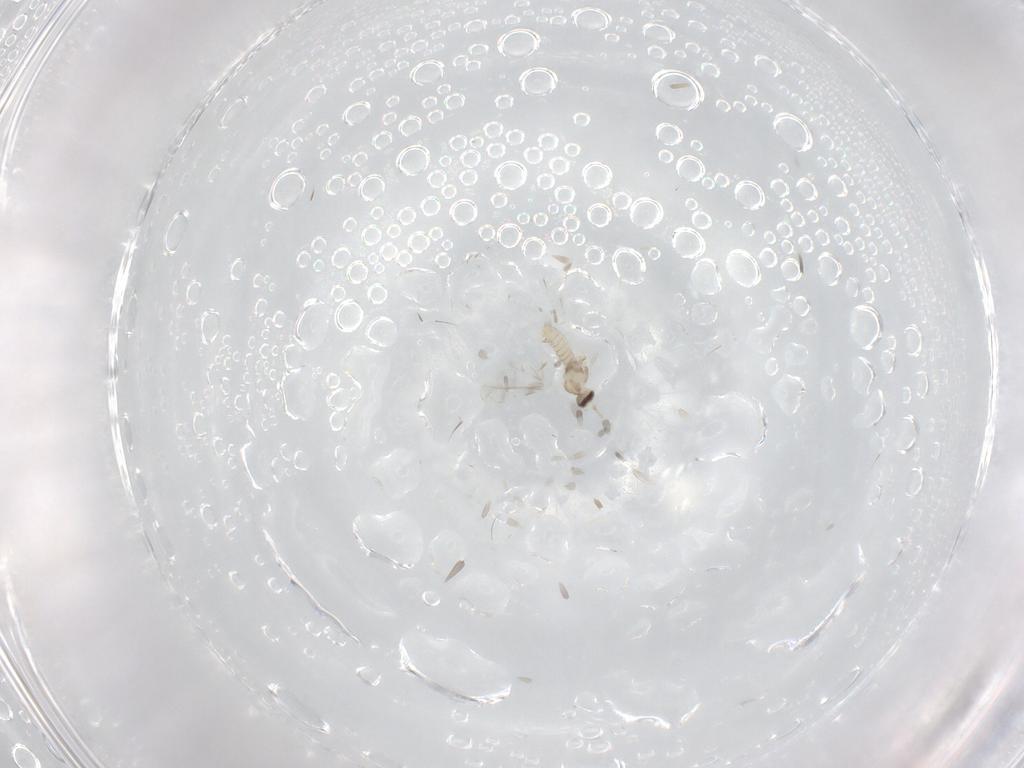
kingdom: Animalia
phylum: Arthropoda
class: Insecta
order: Diptera
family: Cecidomyiidae
